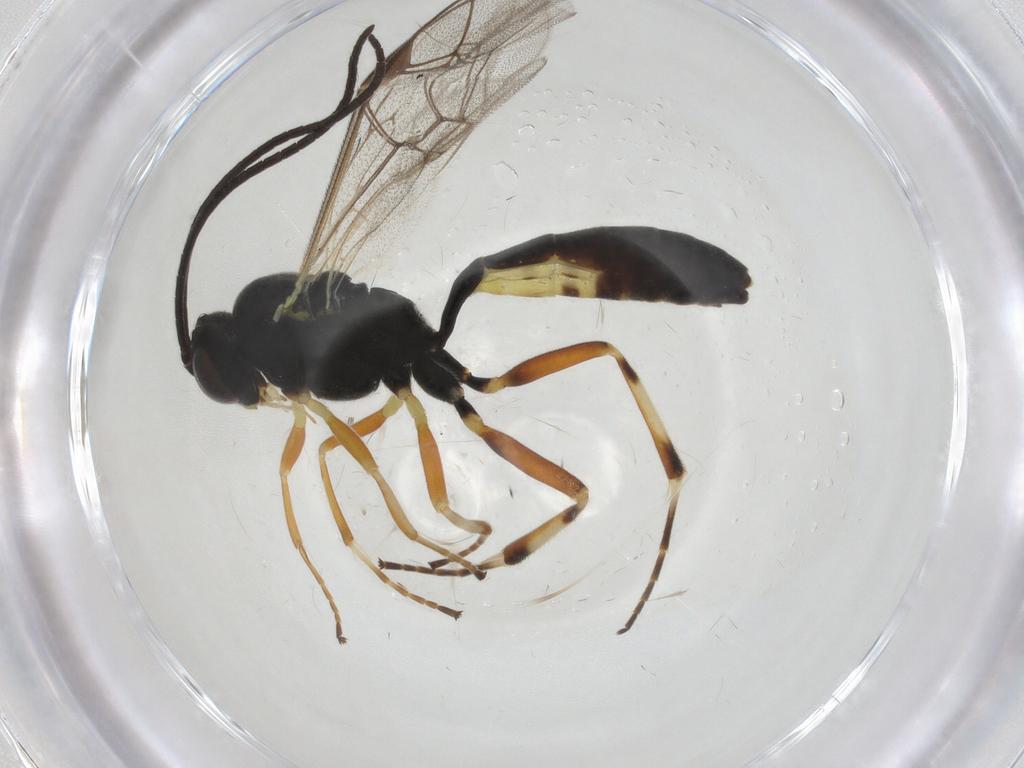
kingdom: Animalia
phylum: Arthropoda
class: Insecta
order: Hymenoptera
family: Ichneumonidae
